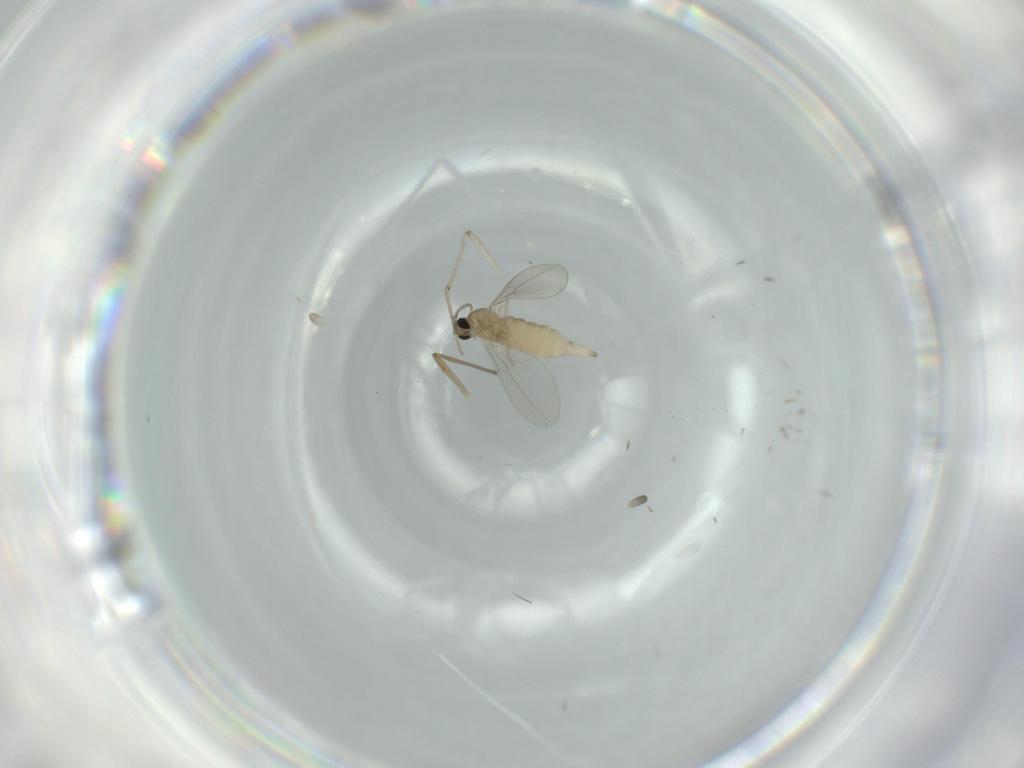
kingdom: Animalia
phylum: Arthropoda
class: Insecta
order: Diptera
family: Cecidomyiidae
